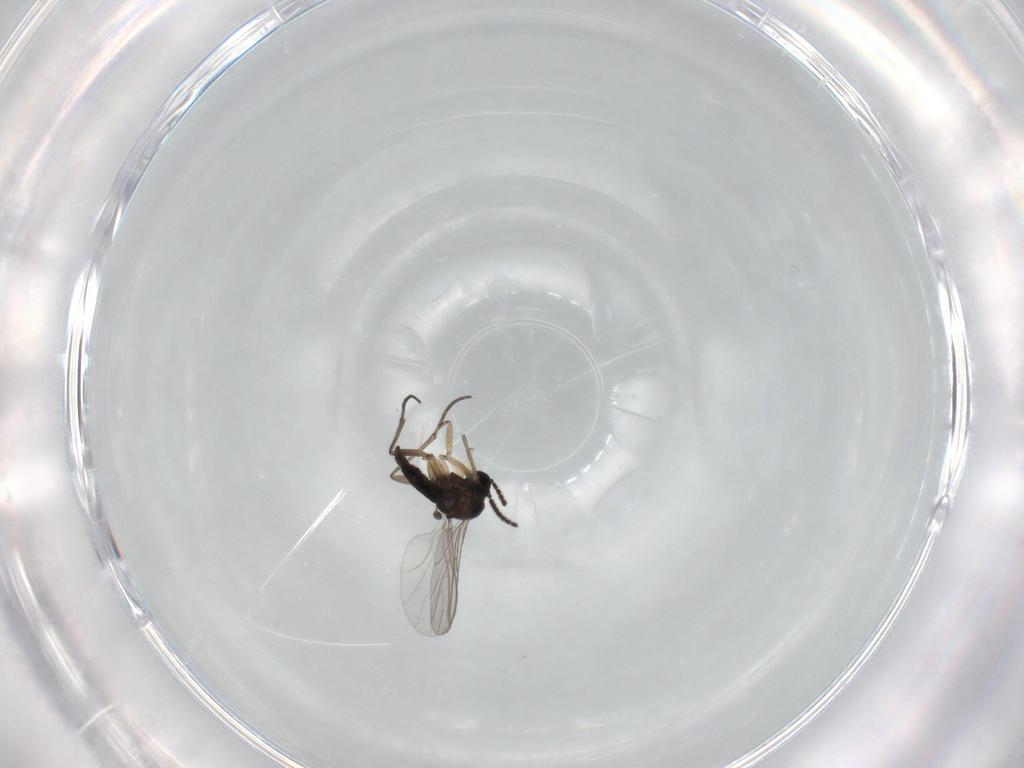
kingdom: Animalia
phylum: Arthropoda
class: Insecta
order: Diptera
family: Sciaridae
